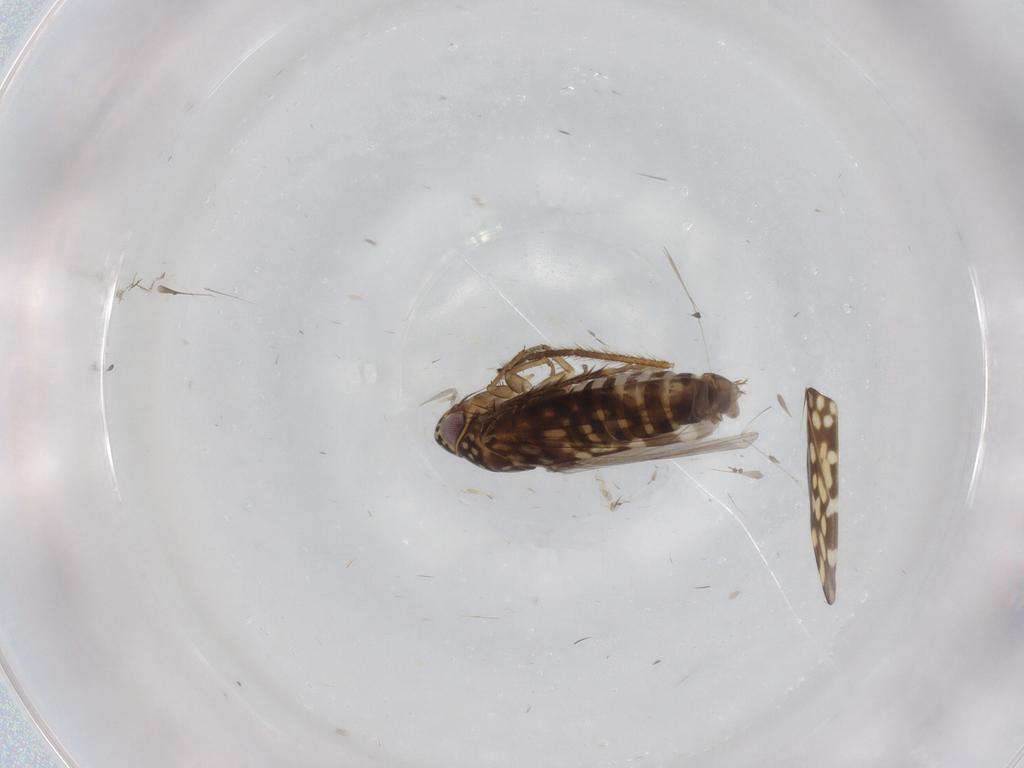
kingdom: Animalia
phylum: Arthropoda
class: Insecta
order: Hemiptera
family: Cicadellidae
